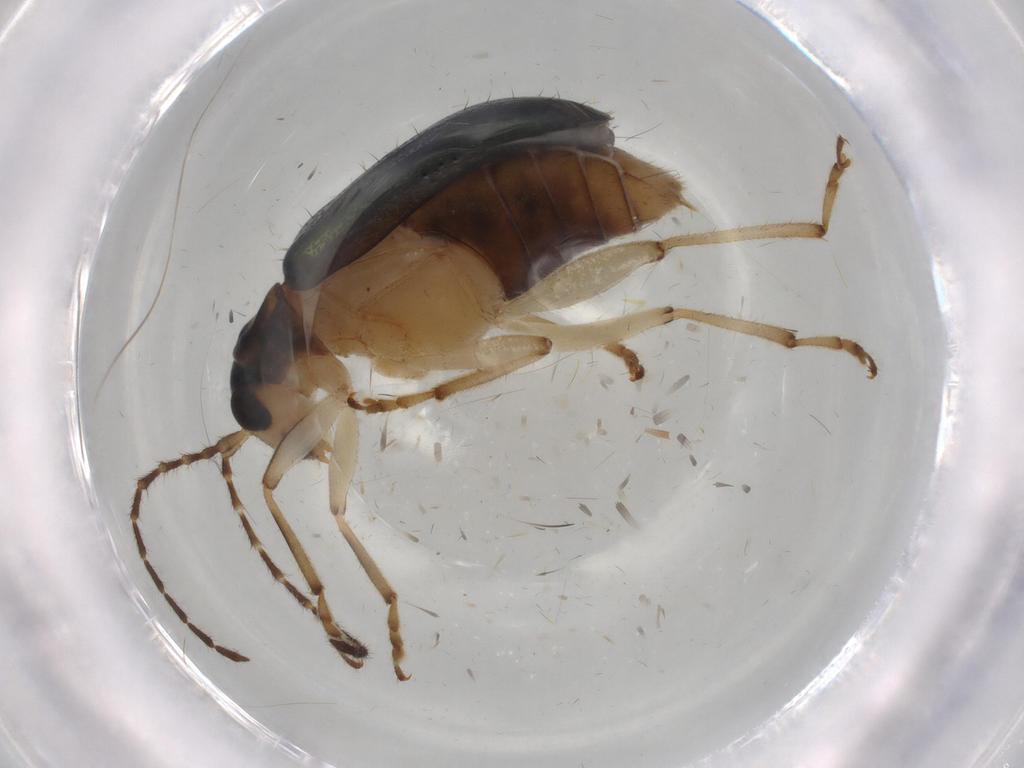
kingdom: Animalia
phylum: Arthropoda
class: Insecta
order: Coleoptera
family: Chrysomelidae
